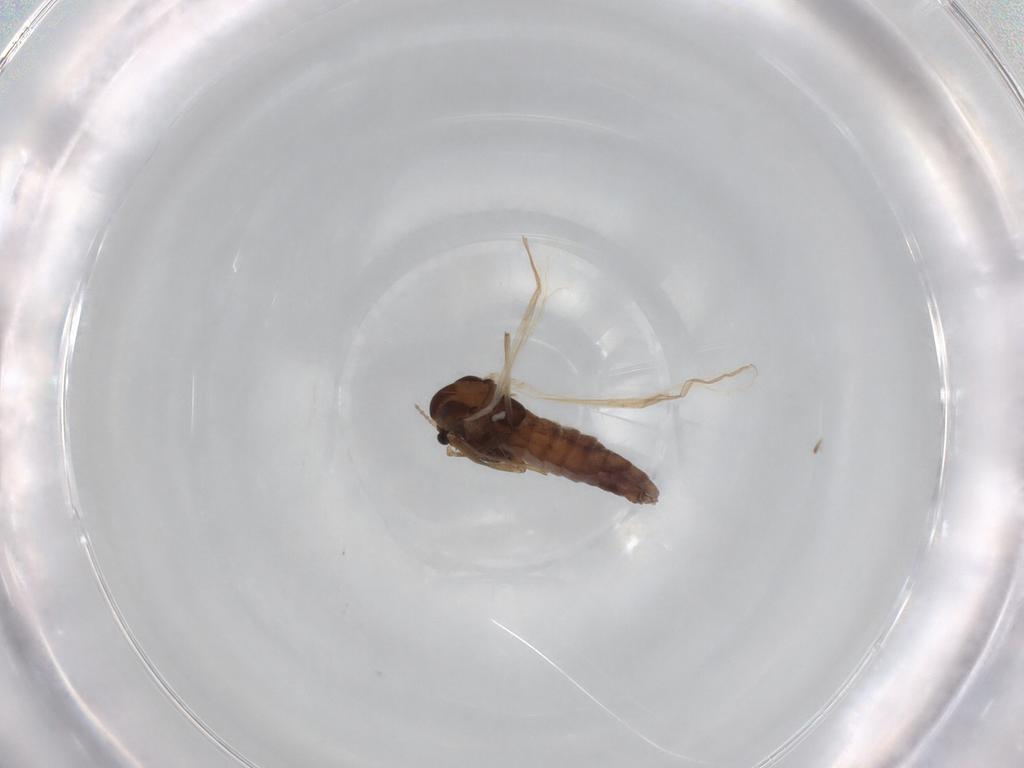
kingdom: Animalia
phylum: Arthropoda
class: Insecta
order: Diptera
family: Chironomidae
